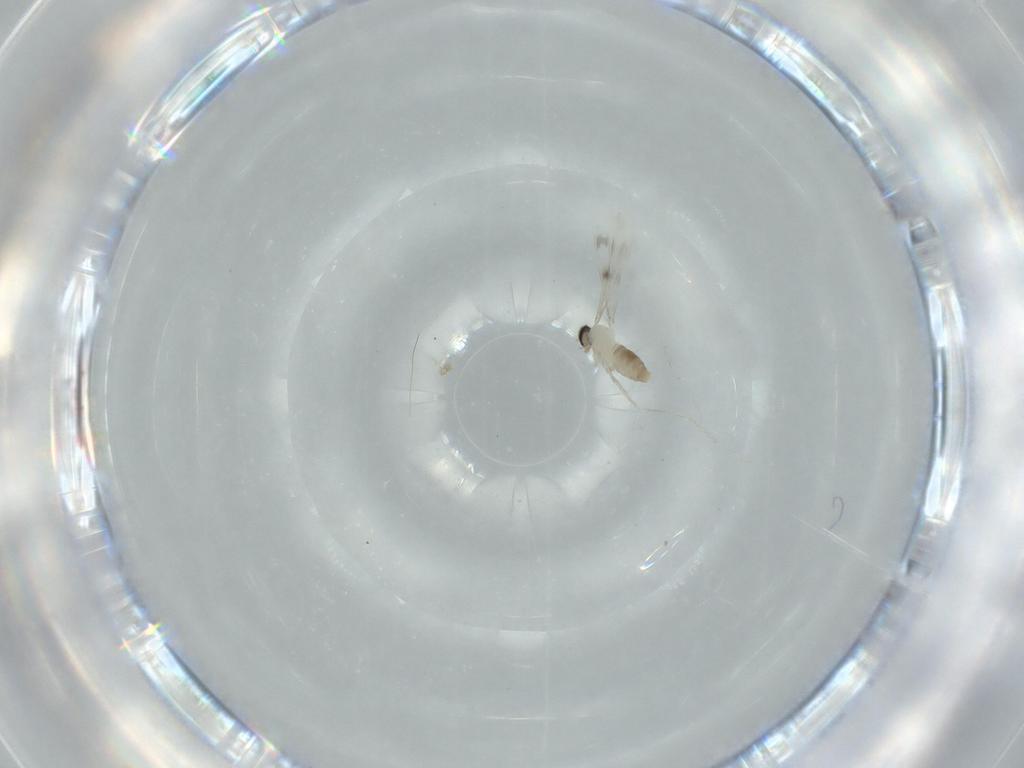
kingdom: Animalia
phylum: Arthropoda
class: Insecta
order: Diptera
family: Cecidomyiidae
